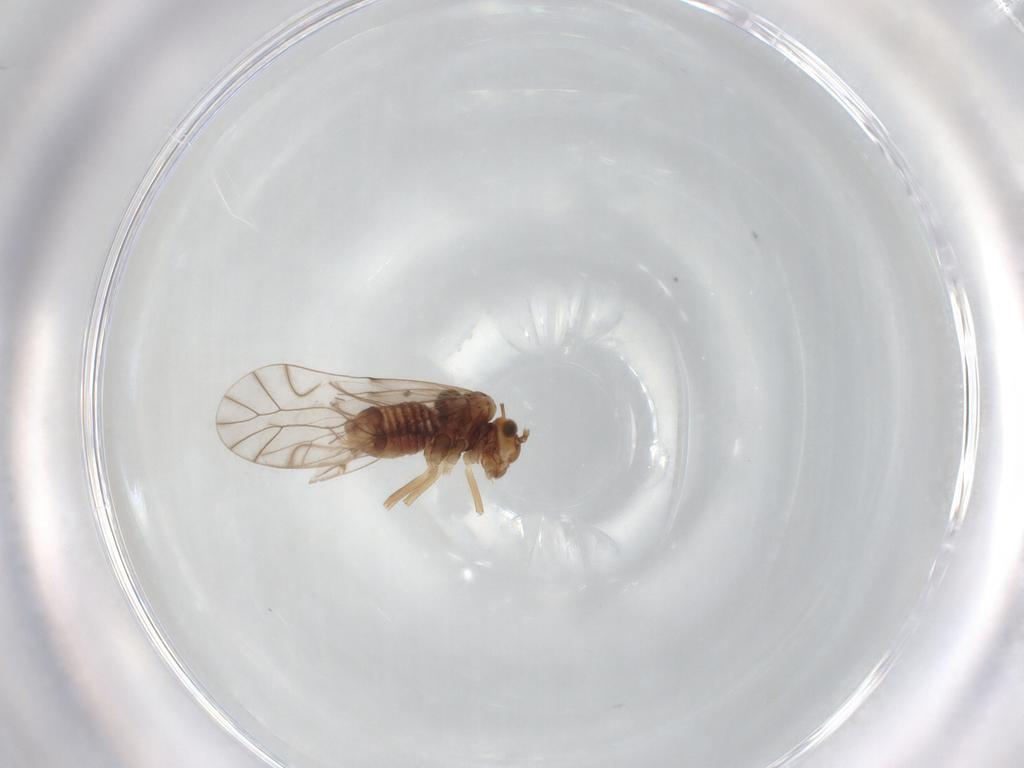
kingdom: Animalia
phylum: Arthropoda
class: Insecta
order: Psocodea
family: Lachesillidae
